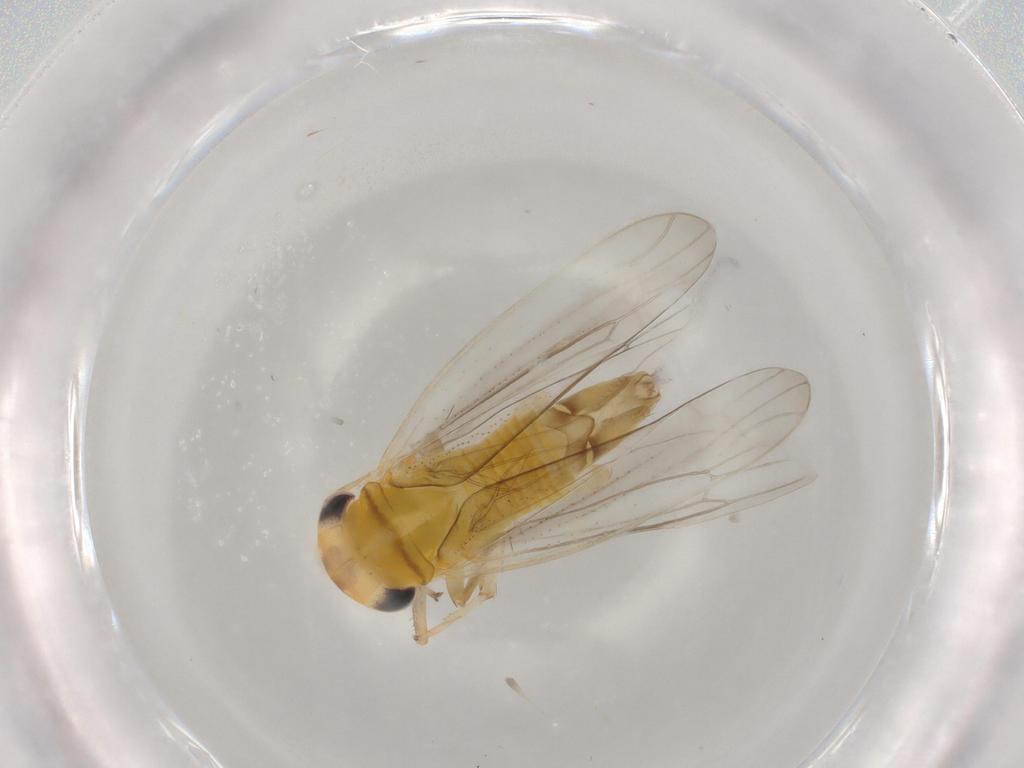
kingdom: Animalia
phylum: Arthropoda
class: Insecta
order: Hemiptera
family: Cicadellidae
